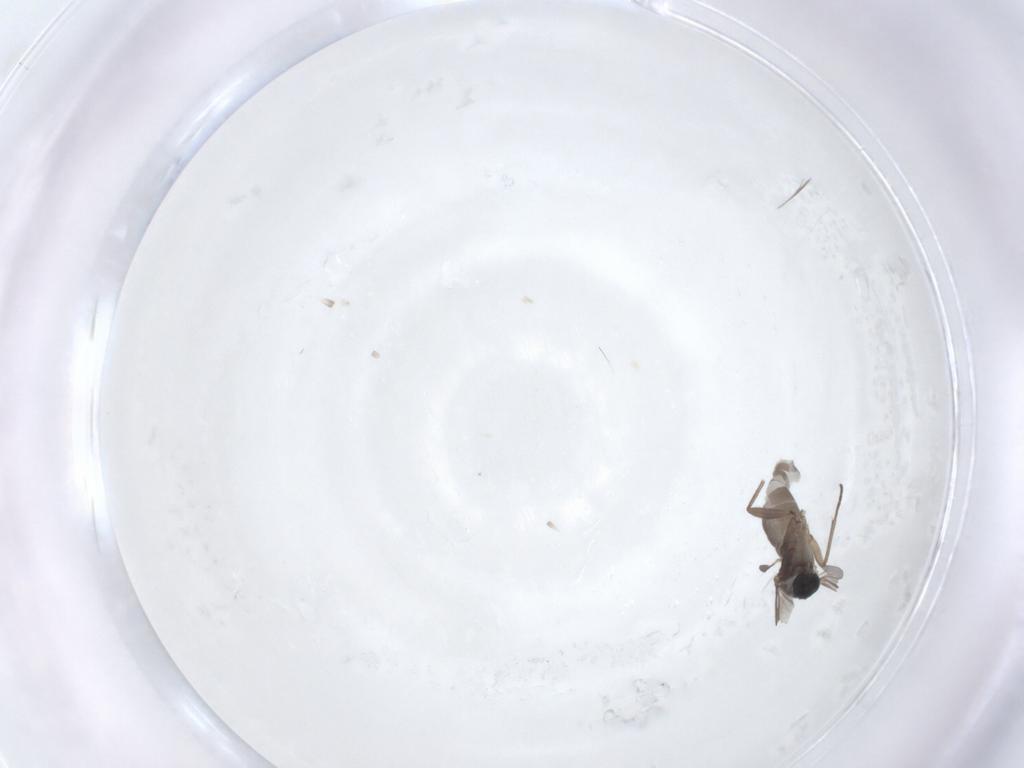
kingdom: Animalia
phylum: Arthropoda
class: Insecta
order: Diptera
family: Sciaridae
